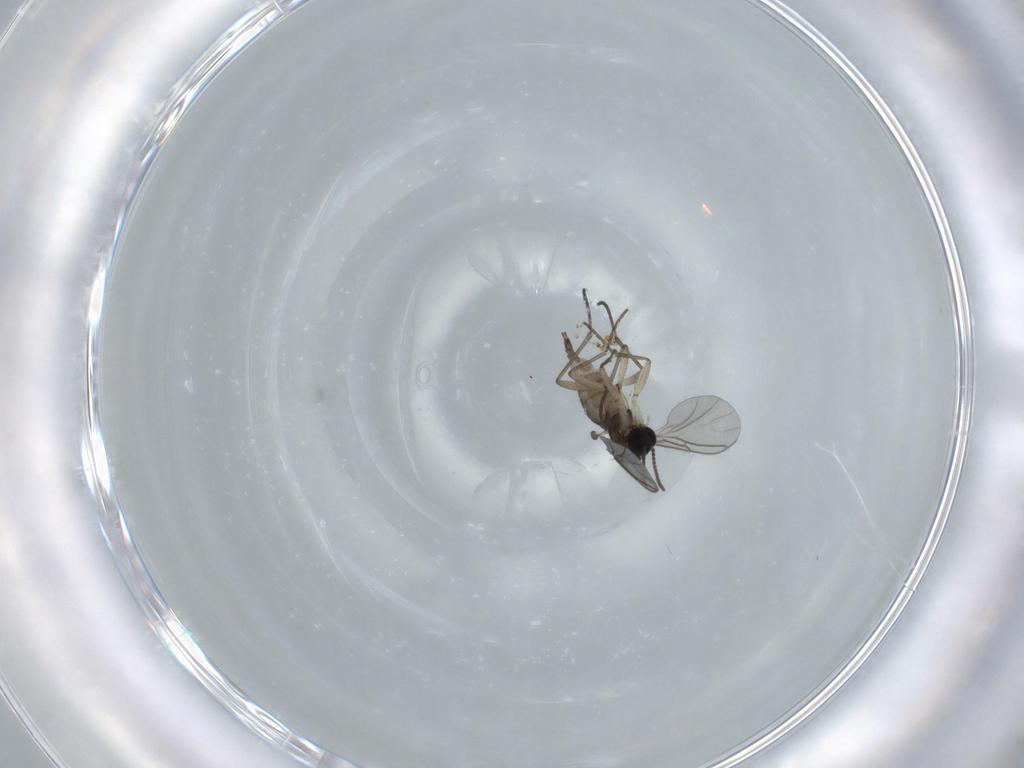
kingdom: Animalia
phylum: Arthropoda
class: Insecta
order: Diptera
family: Sciaridae
